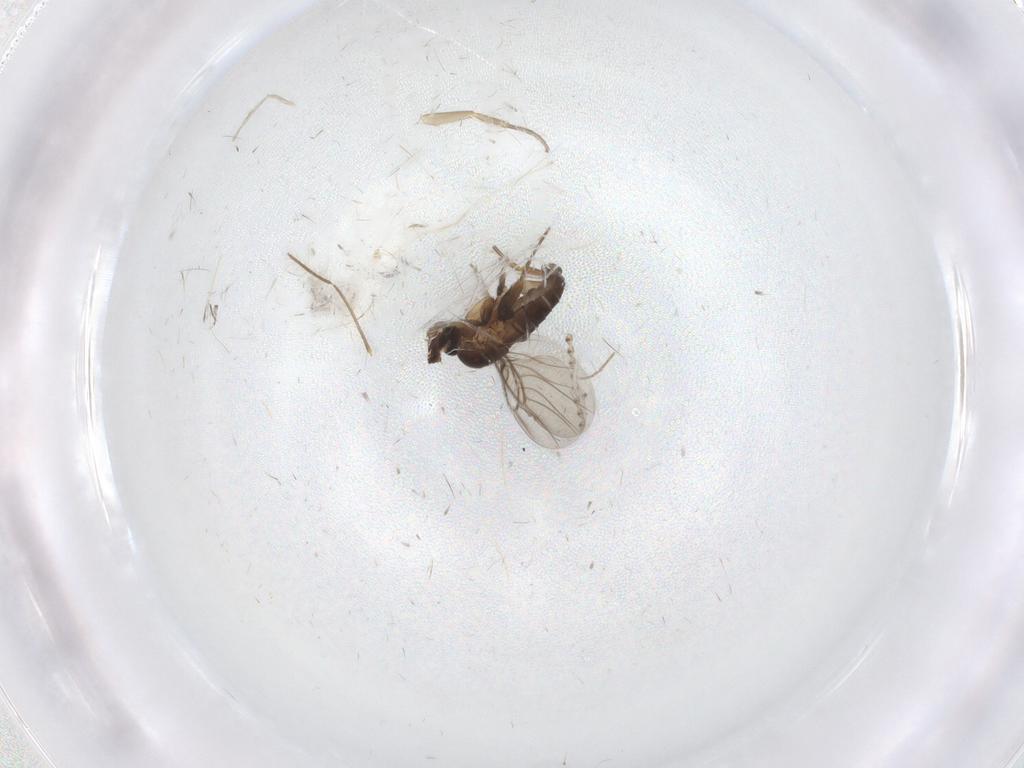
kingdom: Animalia
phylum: Arthropoda
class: Insecta
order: Diptera
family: Phoridae
